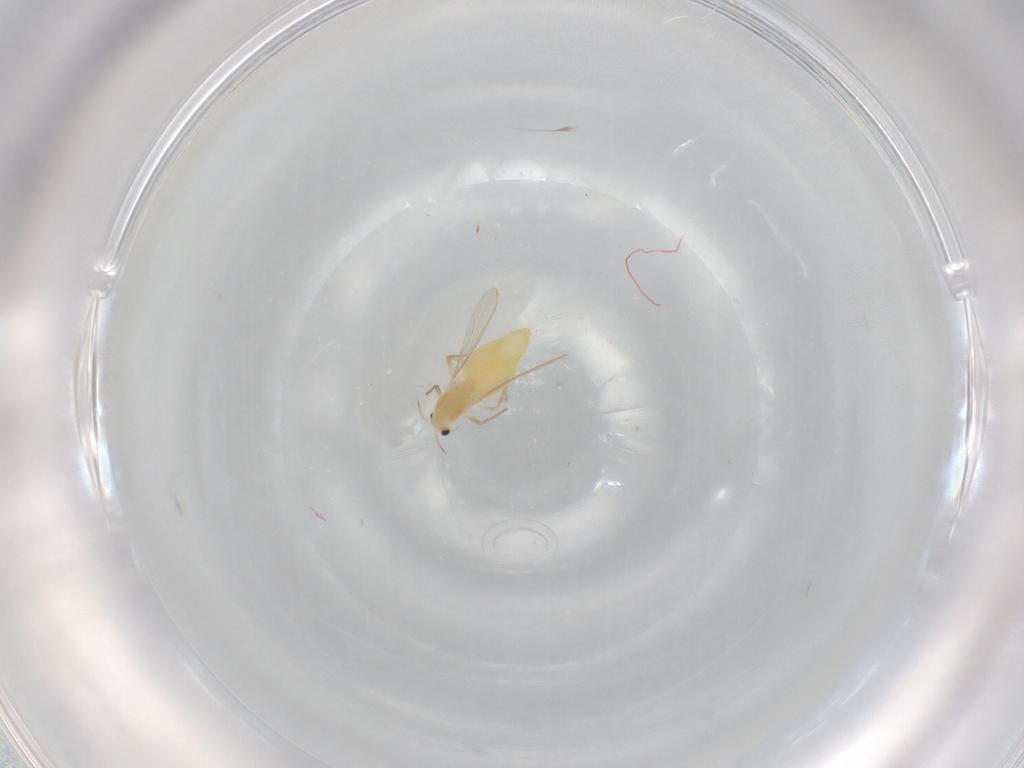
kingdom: Animalia
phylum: Arthropoda
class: Insecta
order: Diptera
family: Chironomidae
